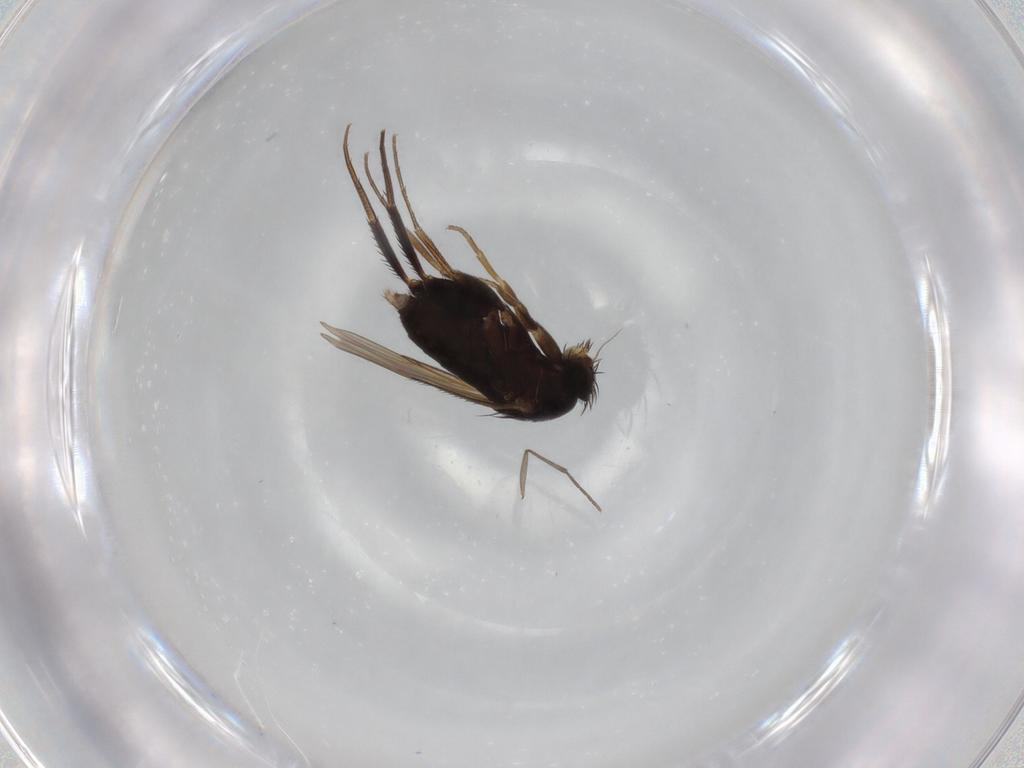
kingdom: Animalia
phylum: Arthropoda
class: Insecta
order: Diptera
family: Phoridae
